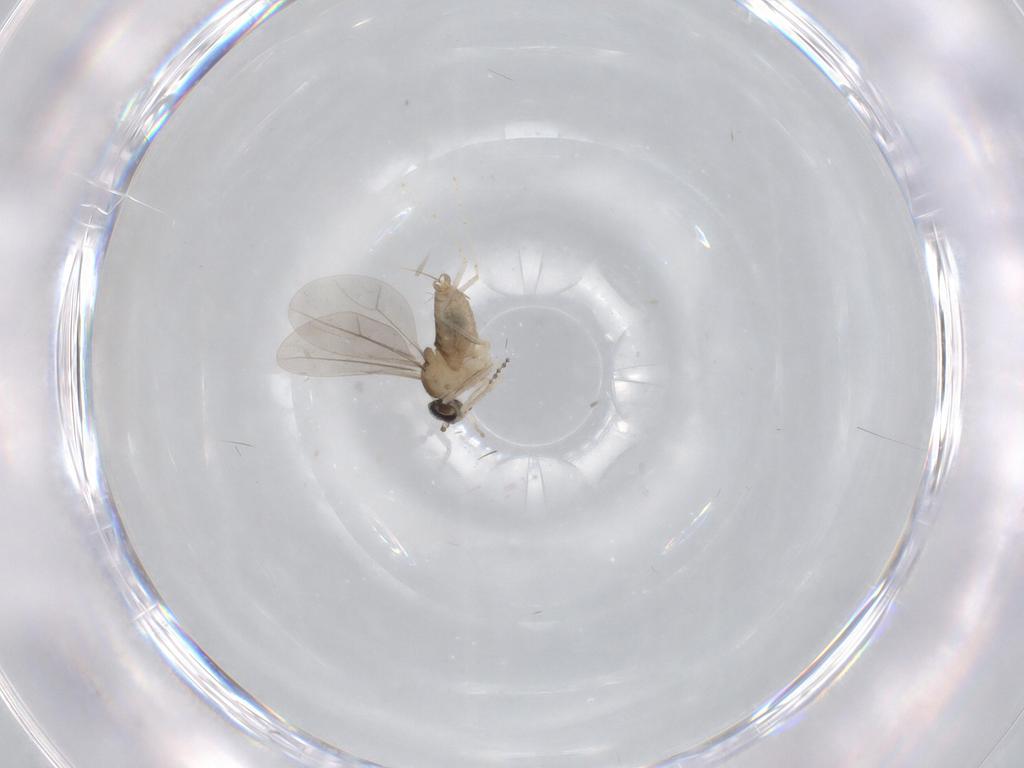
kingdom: Animalia
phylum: Arthropoda
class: Insecta
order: Diptera
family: Cecidomyiidae
